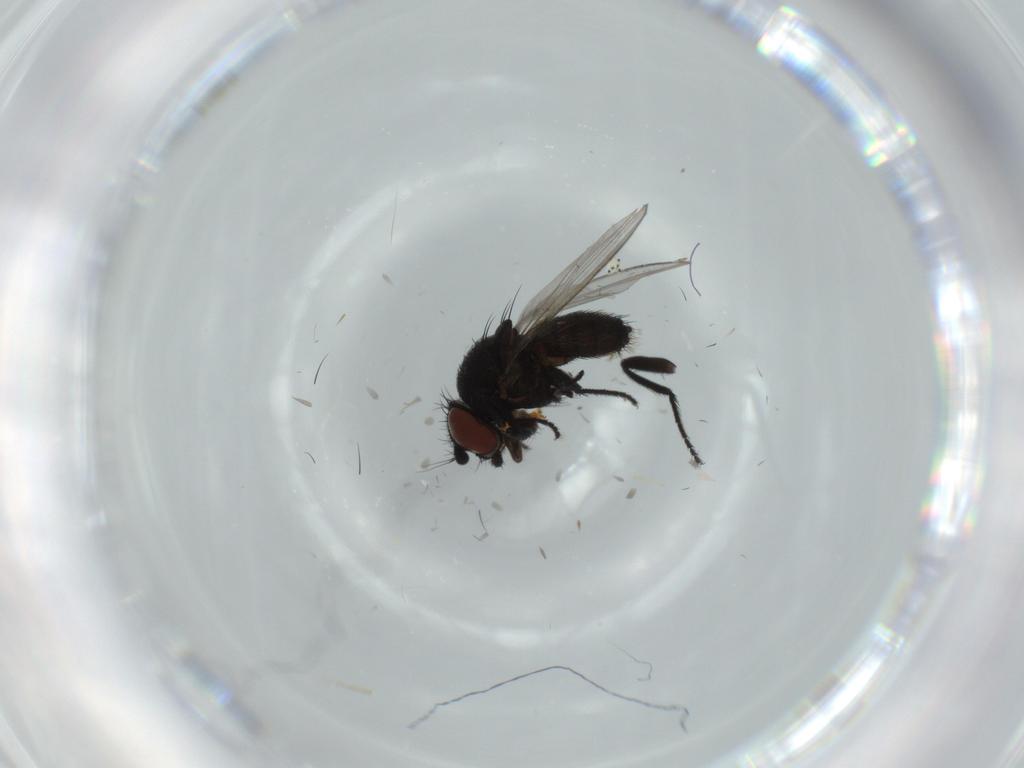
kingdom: Animalia
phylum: Arthropoda
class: Insecta
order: Diptera
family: Milichiidae
